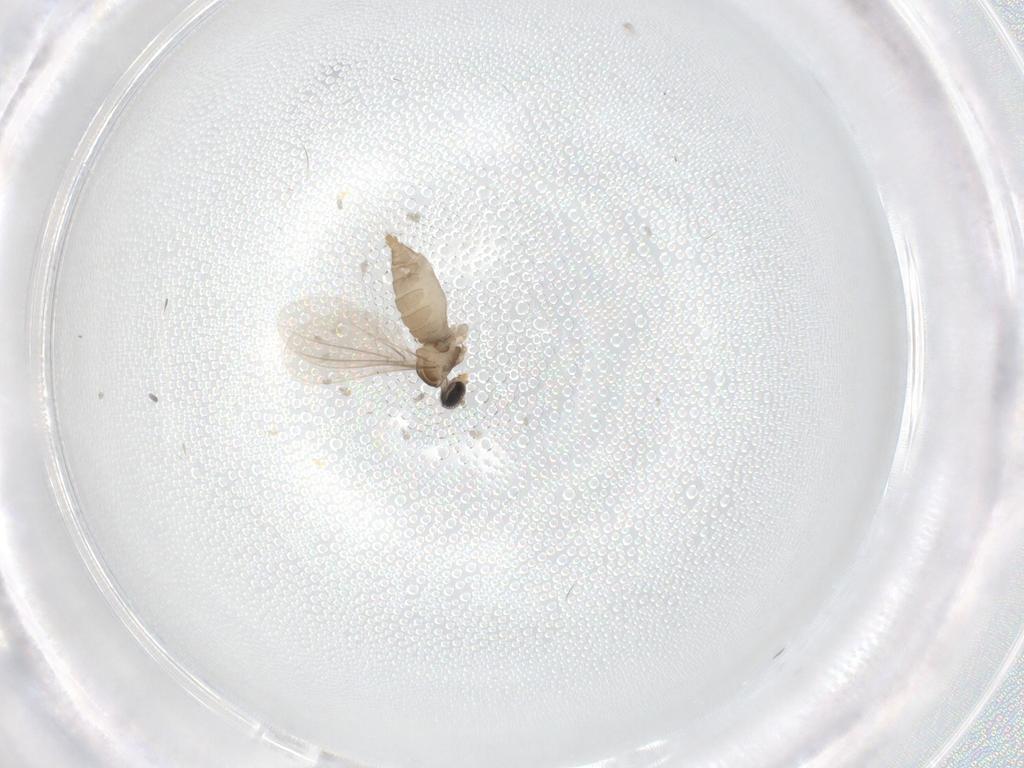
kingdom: Animalia
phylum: Arthropoda
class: Insecta
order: Diptera
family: Cecidomyiidae
